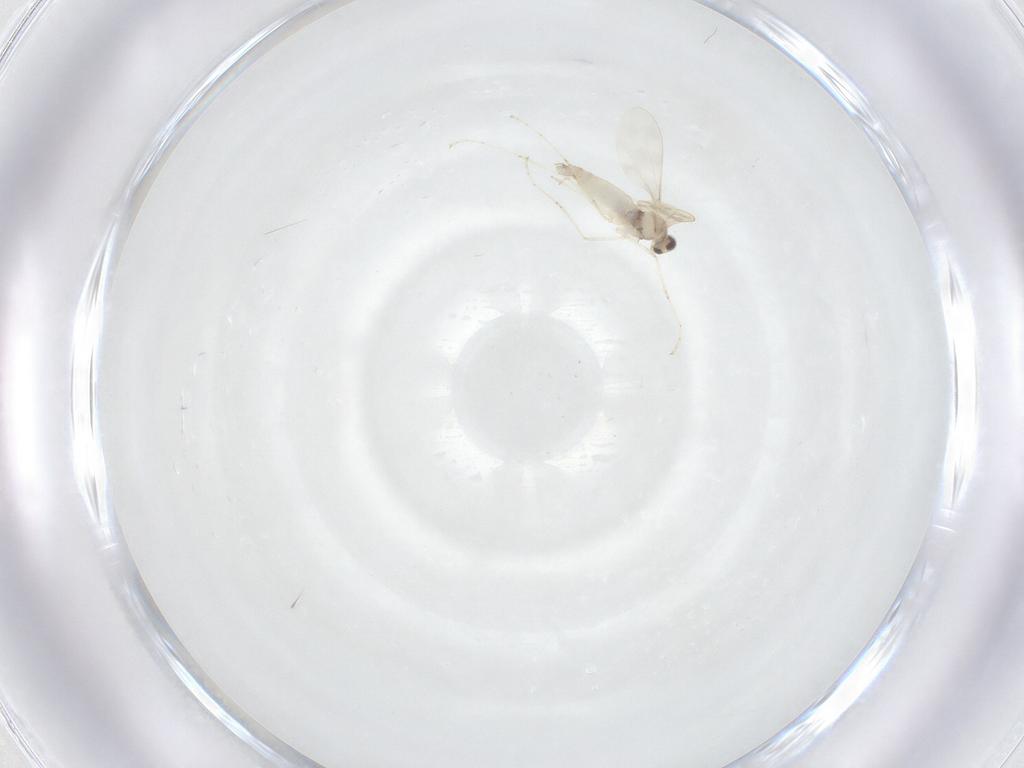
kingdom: Animalia
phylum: Arthropoda
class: Insecta
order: Diptera
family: Cecidomyiidae
